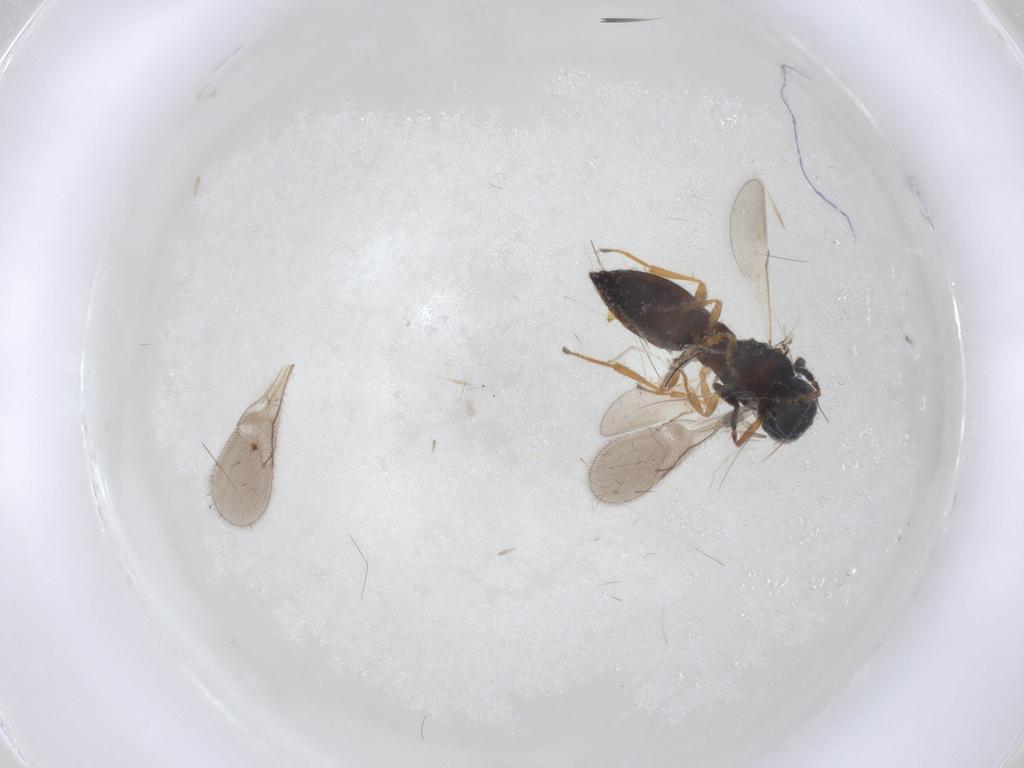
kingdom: Animalia
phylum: Arthropoda
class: Insecta
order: Hymenoptera
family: Scelionidae
